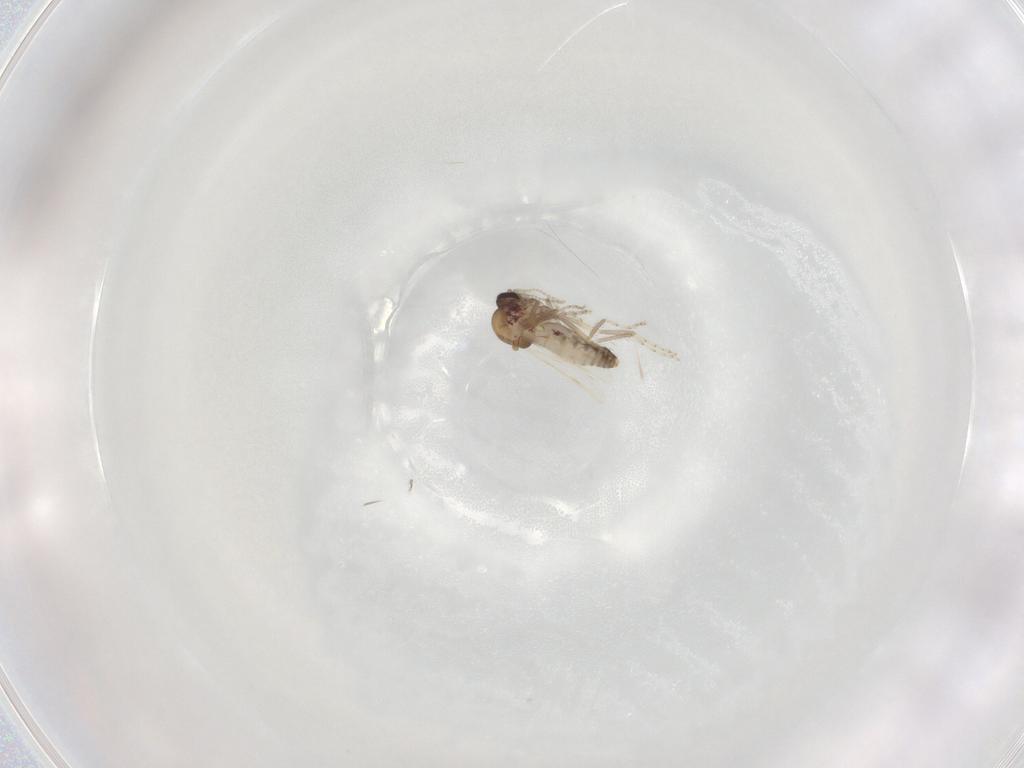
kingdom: Animalia
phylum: Arthropoda
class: Insecta
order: Diptera
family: Ceratopogonidae
